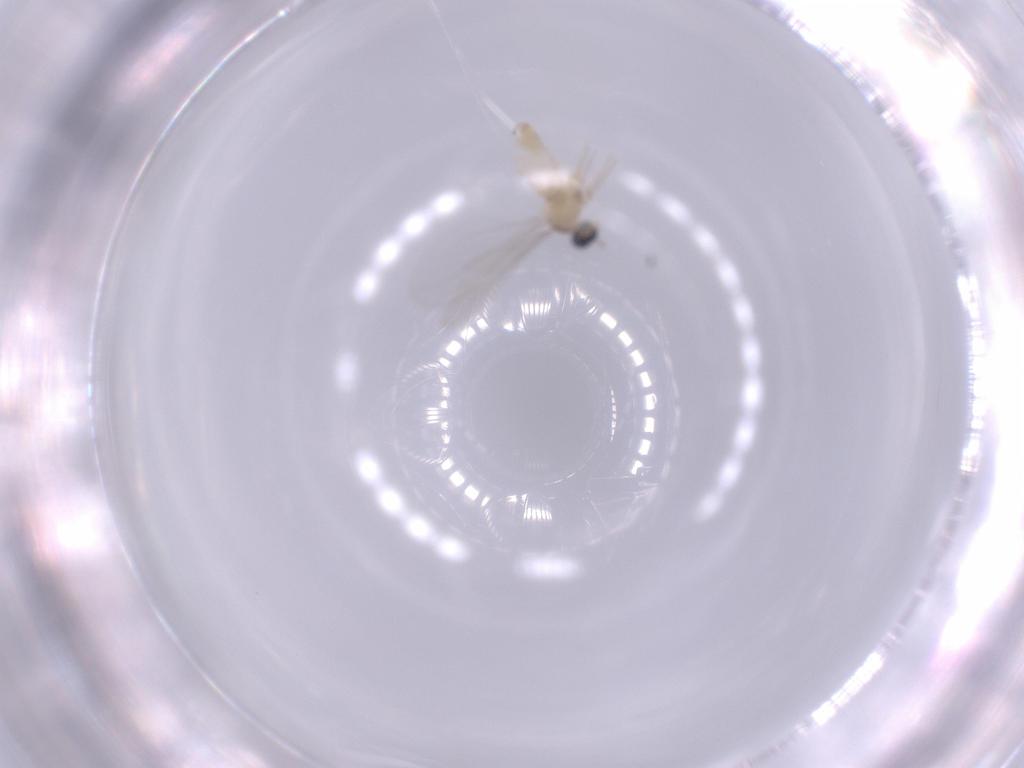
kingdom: Animalia
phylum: Arthropoda
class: Insecta
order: Diptera
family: Cecidomyiidae
